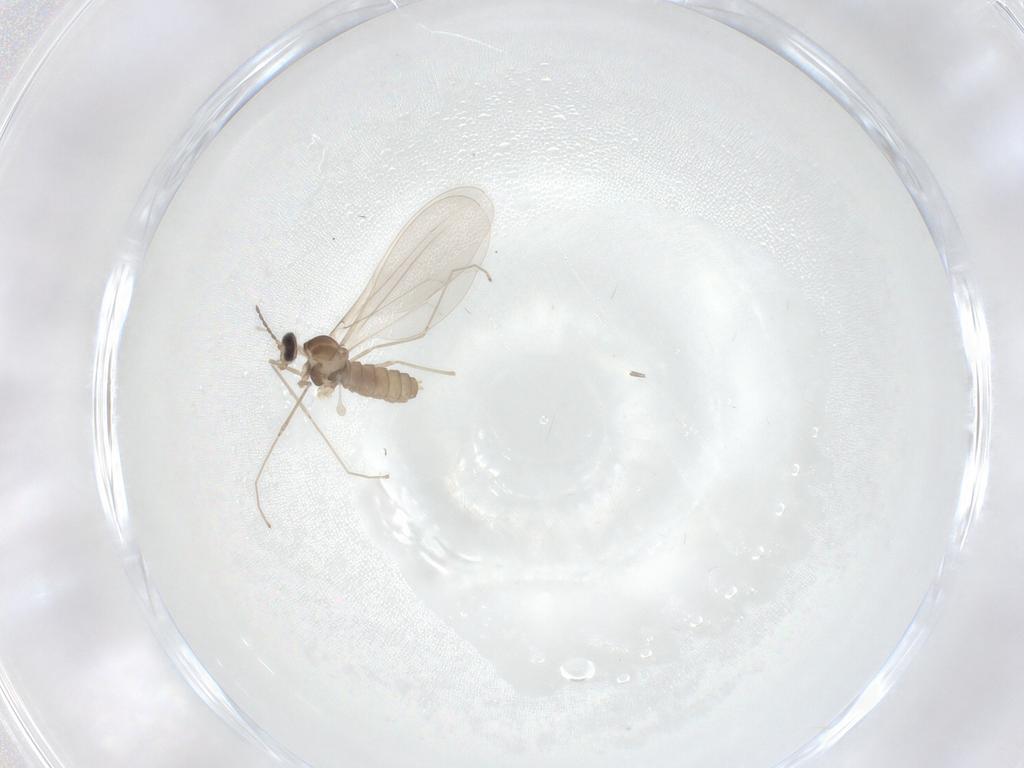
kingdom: Animalia
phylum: Arthropoda
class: Insecta
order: Diptera
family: Cecidomyiidae
